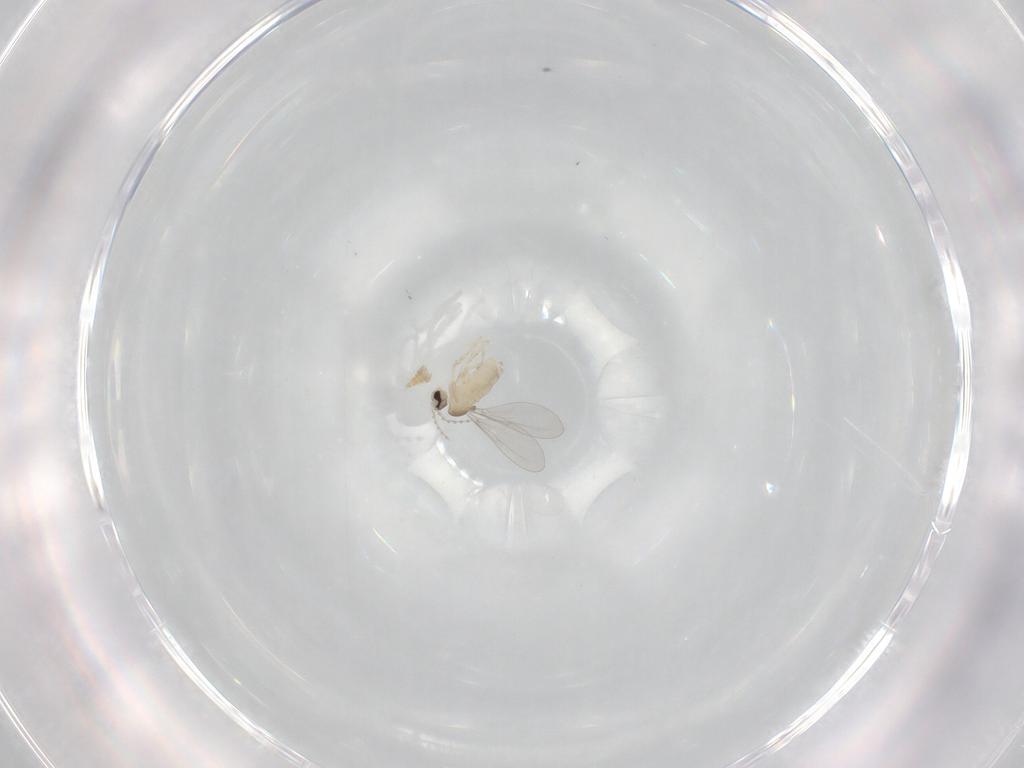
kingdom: Animalia
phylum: Arthropoda
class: Insecta
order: Diptera
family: Cecidomyiidae
